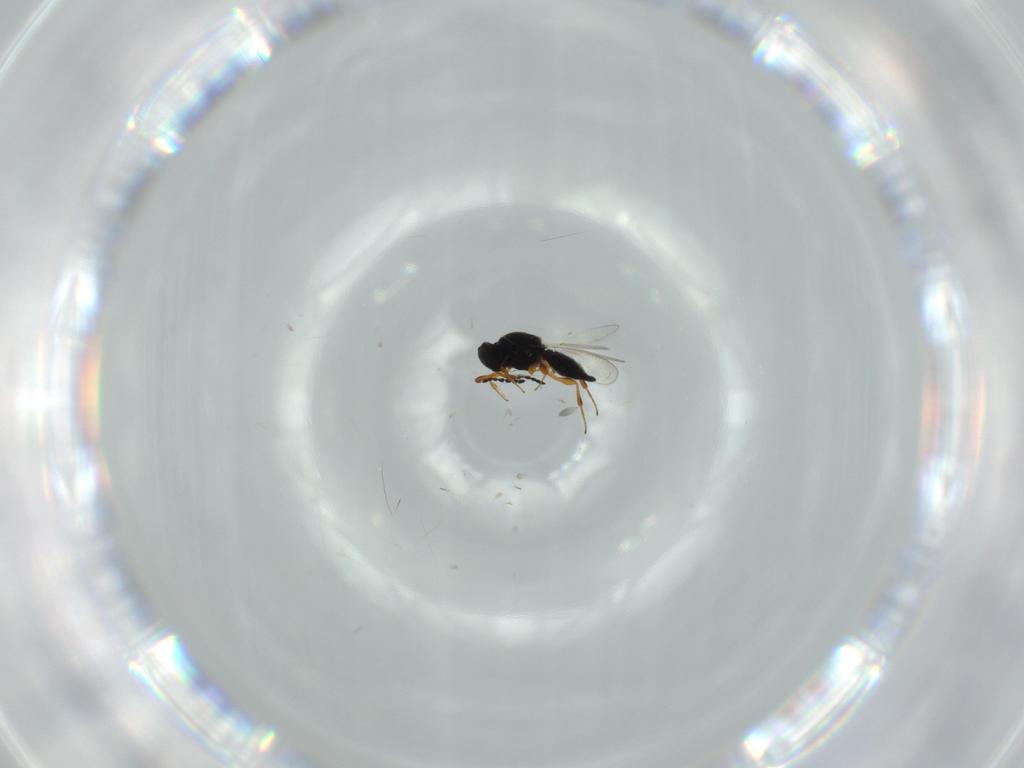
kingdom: Animalia
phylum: Arthropoda
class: Insecta
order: Hymenoptera
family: Platygastridae
